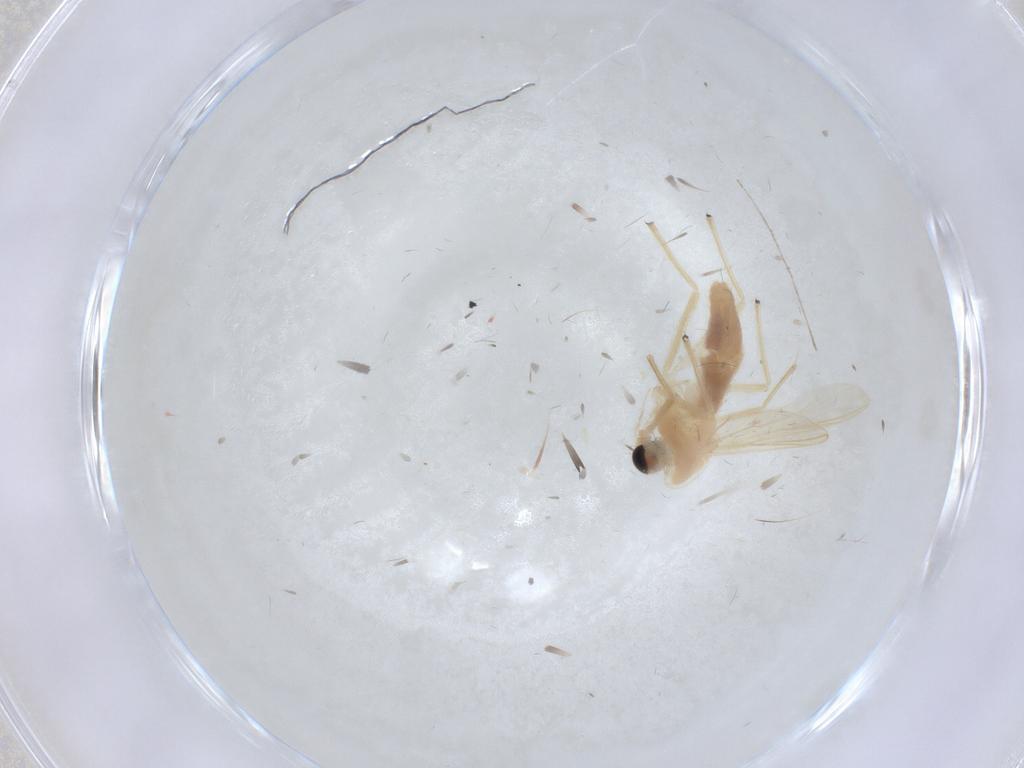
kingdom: Animalia
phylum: Arthropoda
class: Insecta
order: Diptera
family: Chironomidae
